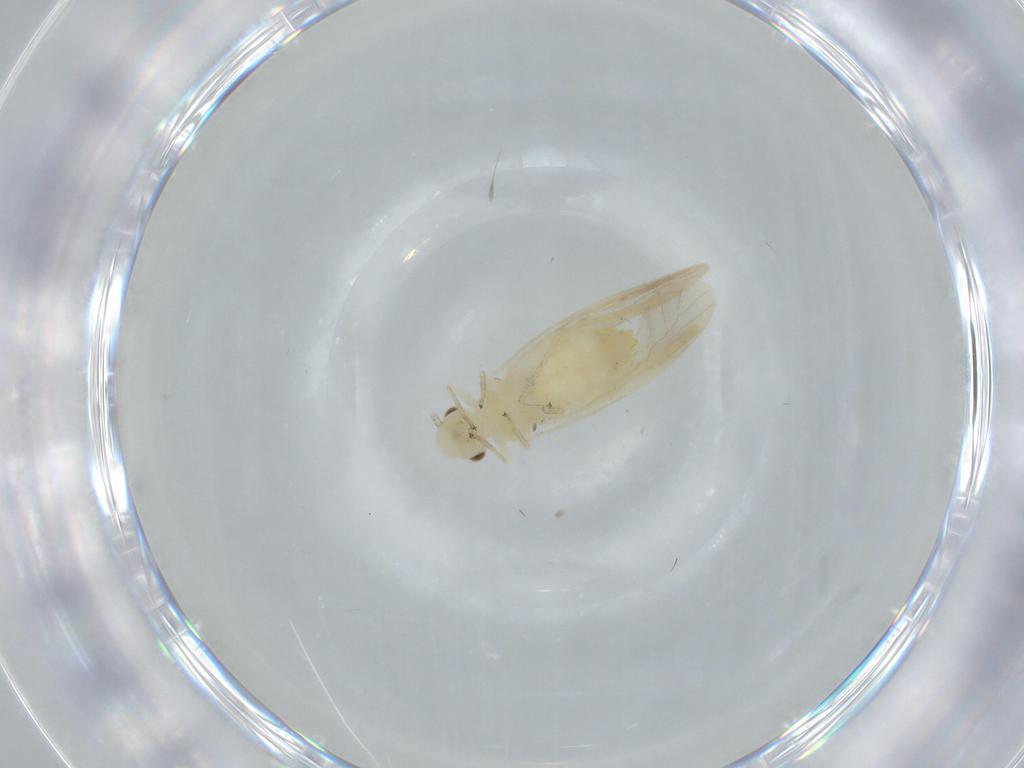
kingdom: Animalia
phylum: Arthropoda
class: Insecta
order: Psocodea
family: Caeciliusidae
